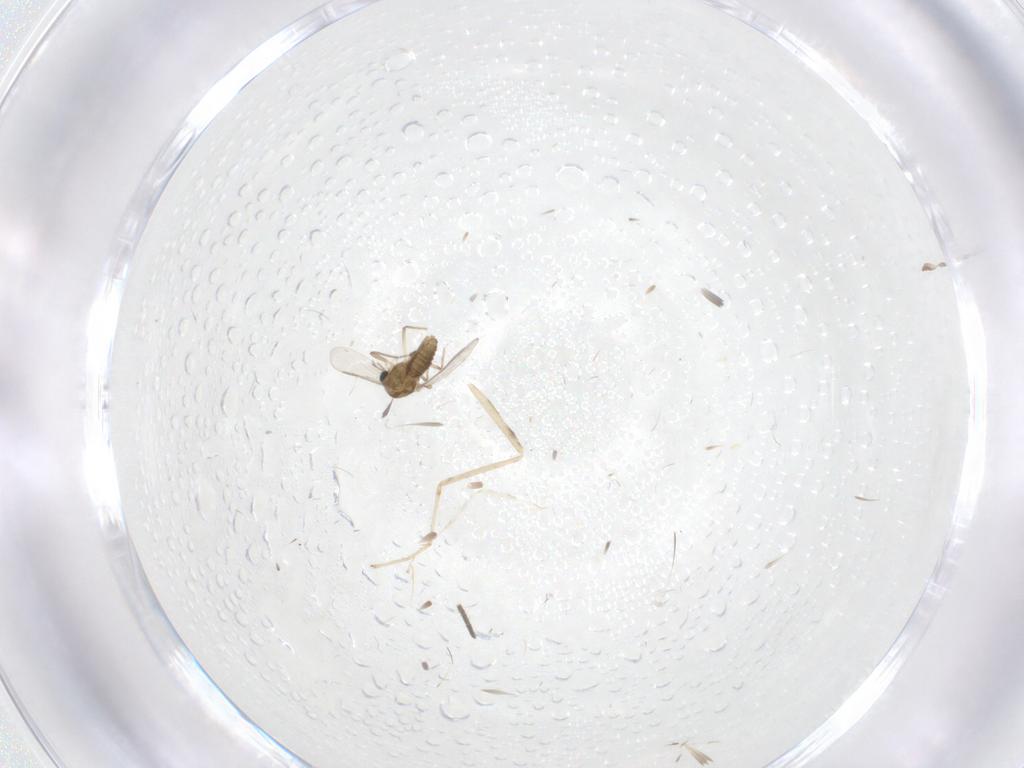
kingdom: Animalia
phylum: Arthropoda
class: Insecta
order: Diptera
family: Chironomidae
